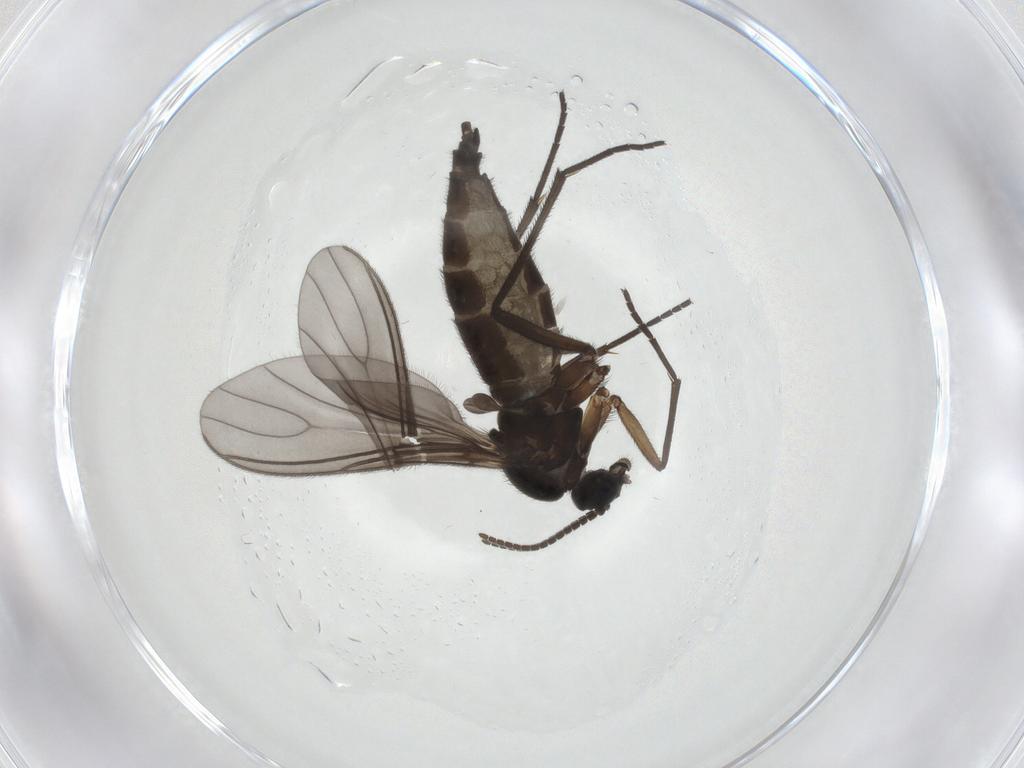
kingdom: Animalia
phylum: Arthropoda
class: Insecta
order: Diptera
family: Sciaridae
